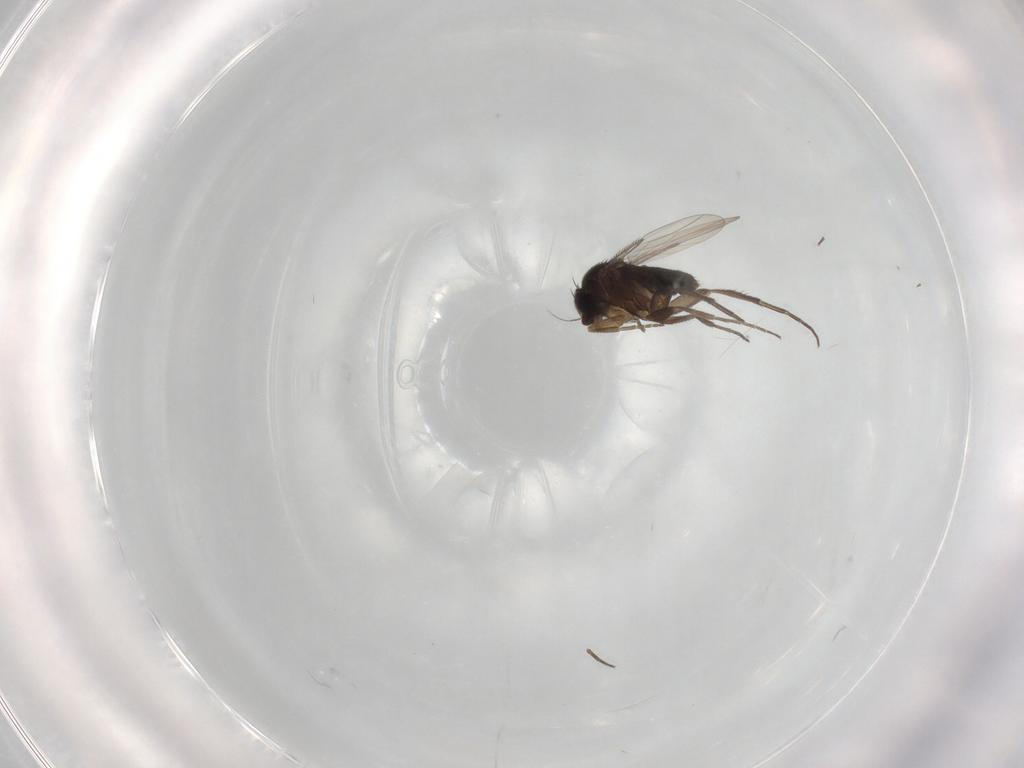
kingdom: Animalia
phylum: Arthropoda
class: Insecta
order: Diptera
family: Phoridae
